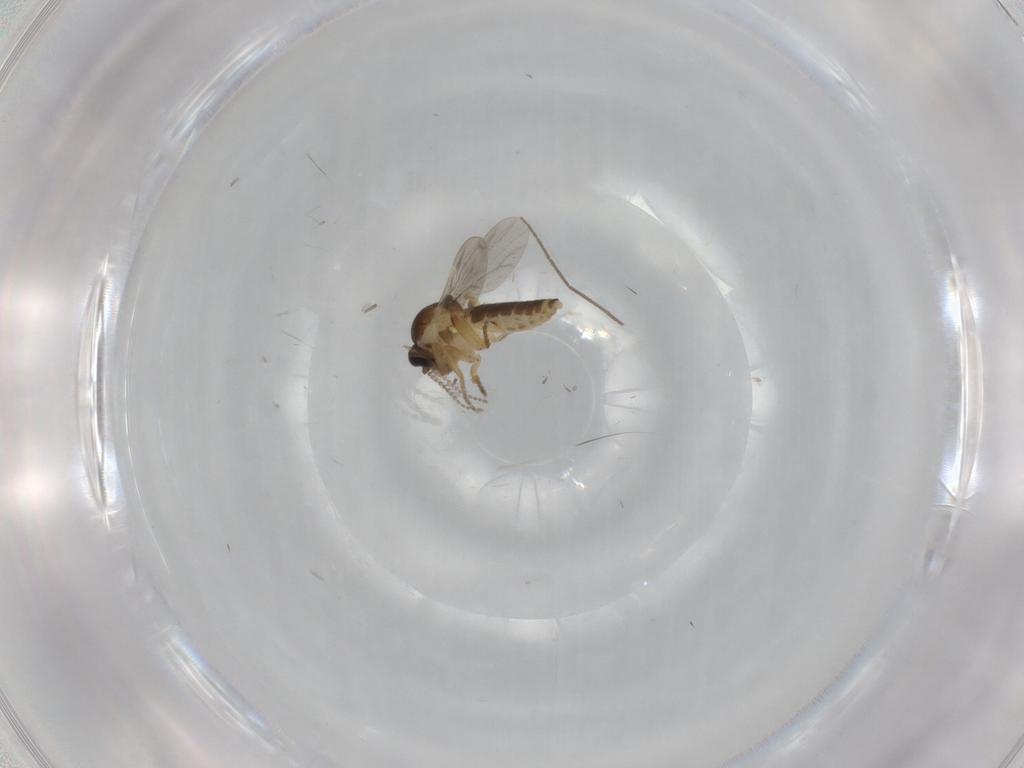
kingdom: Animalia
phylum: Arthropoda
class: Insecta
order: Diptera
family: Ceratopogonidae
